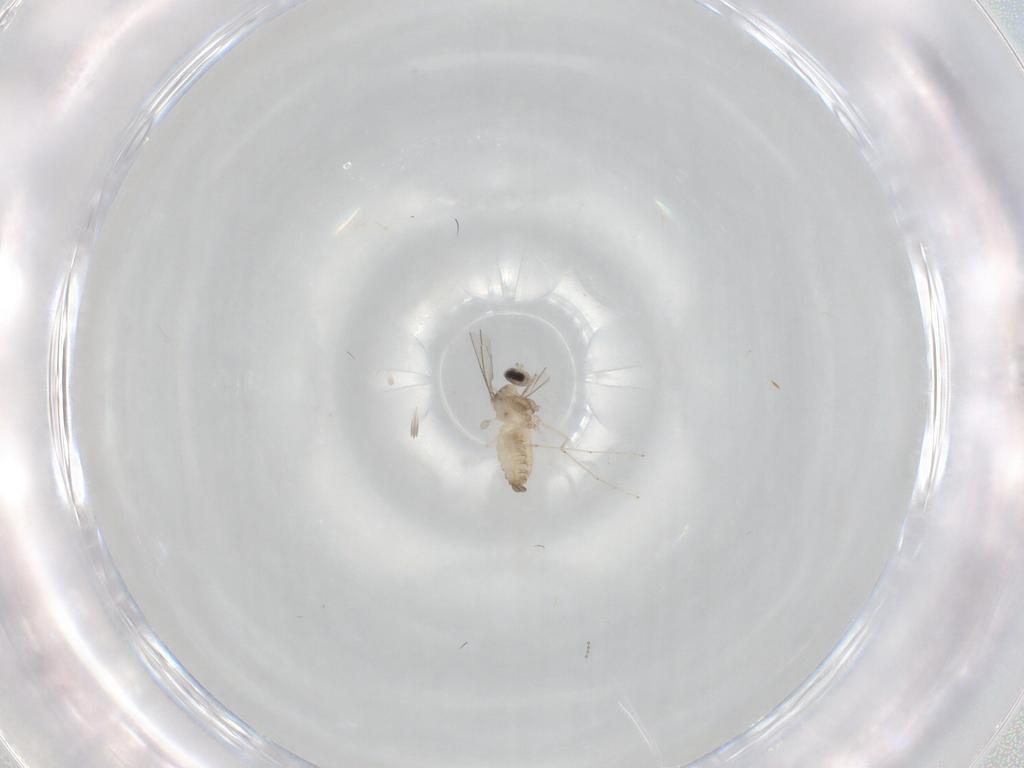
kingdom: Animalia
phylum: Arthropoda
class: Insecta
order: Diptera
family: Cecidomyiidae
